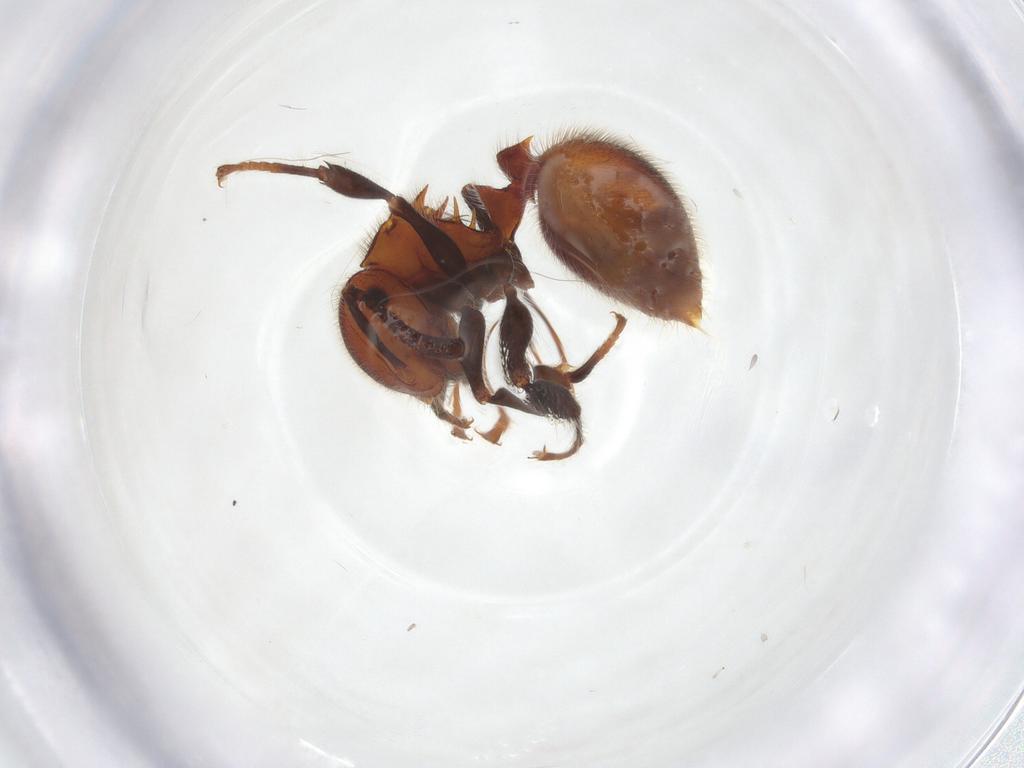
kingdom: Animalia
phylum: Arthropoda
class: Insecta
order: Hymenoptera
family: Formicidae
